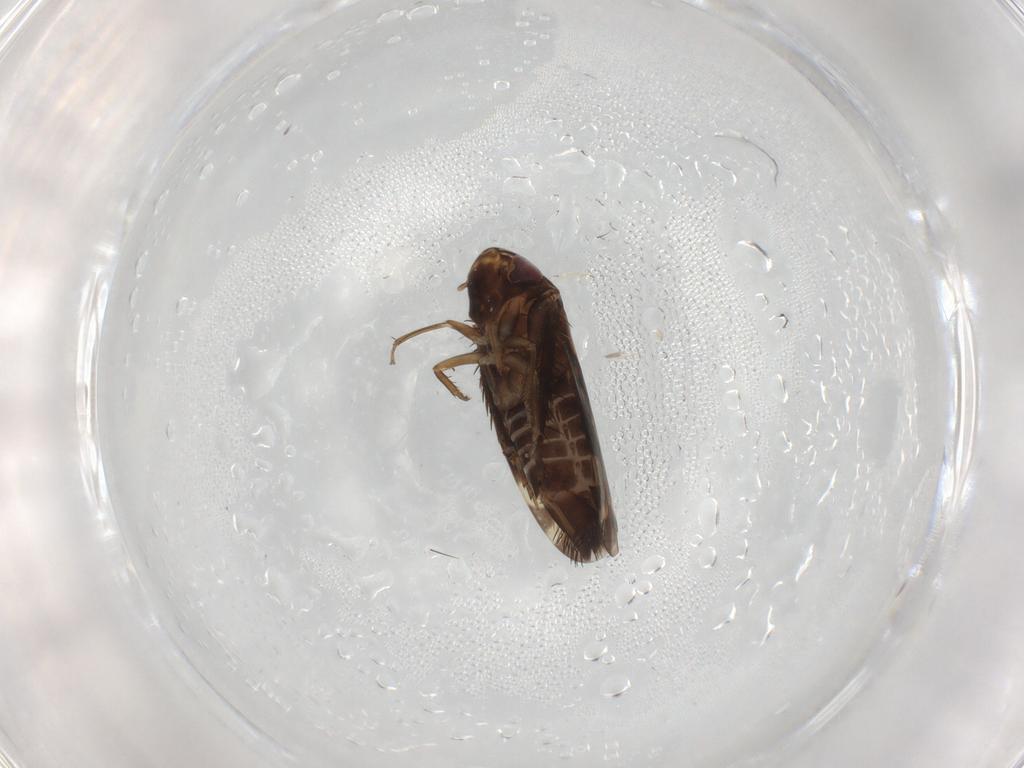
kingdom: Animalia
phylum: Arthropoda
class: Insecta
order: Hemiptera
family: Cicadellidae
